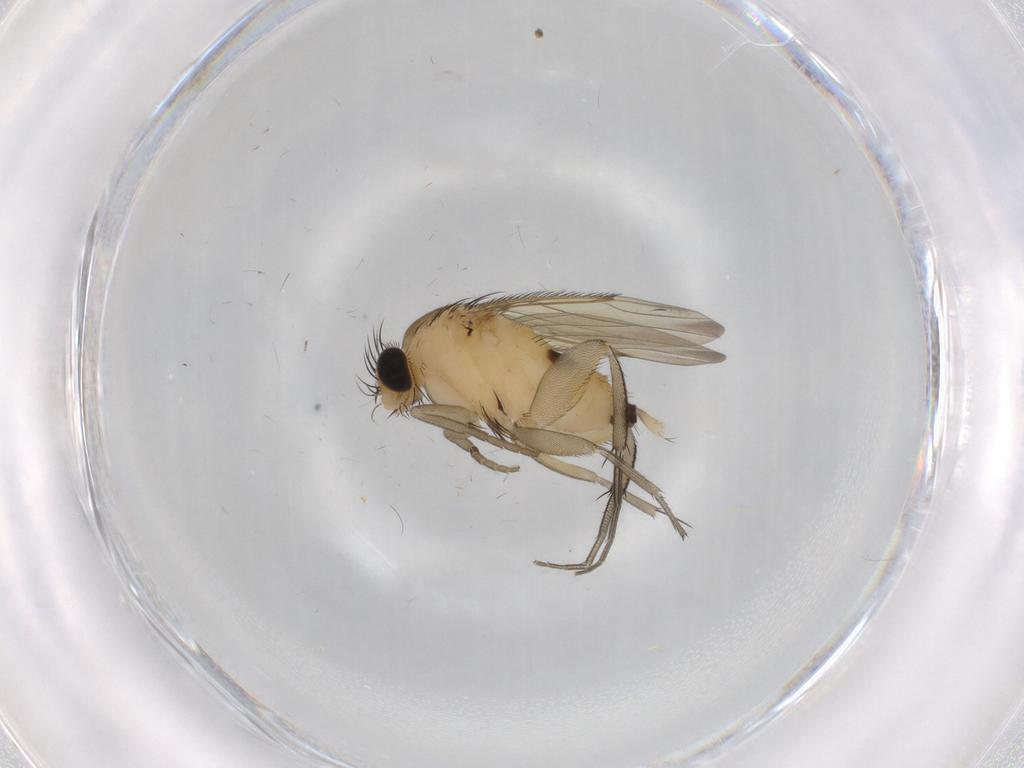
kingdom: Animalia
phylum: Arthropoda
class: Insecta
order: Diptera
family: Phoridae
